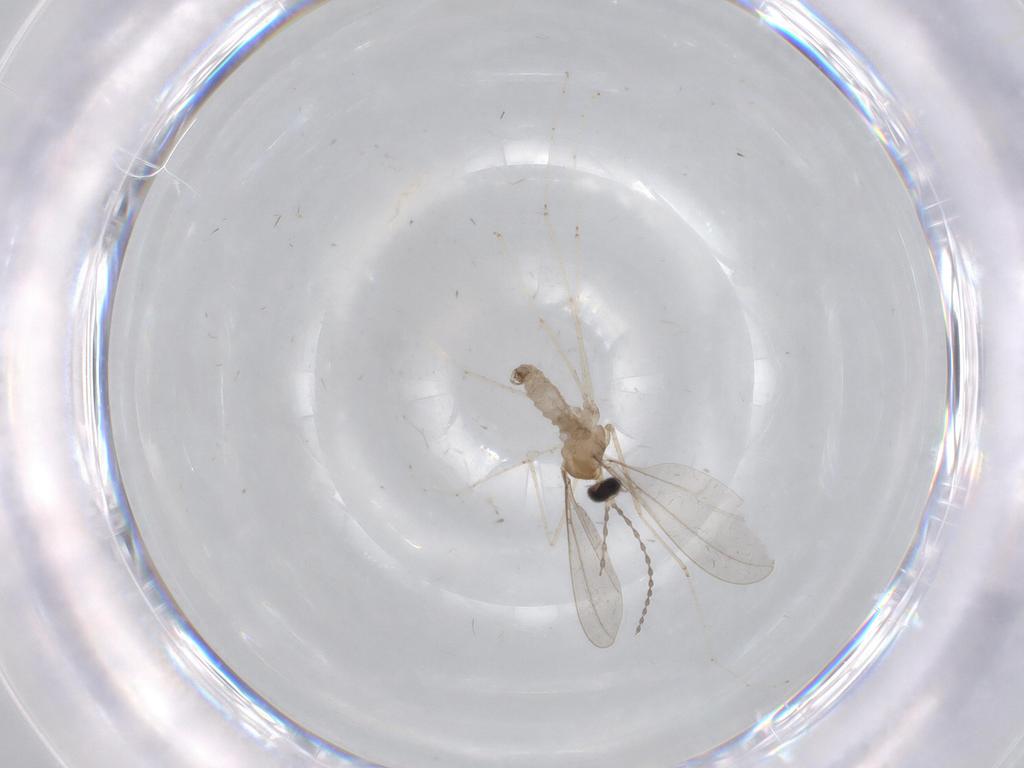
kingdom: Animalia
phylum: Arthropoda
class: Insecta
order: Diptera
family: Cecidomyiidae
